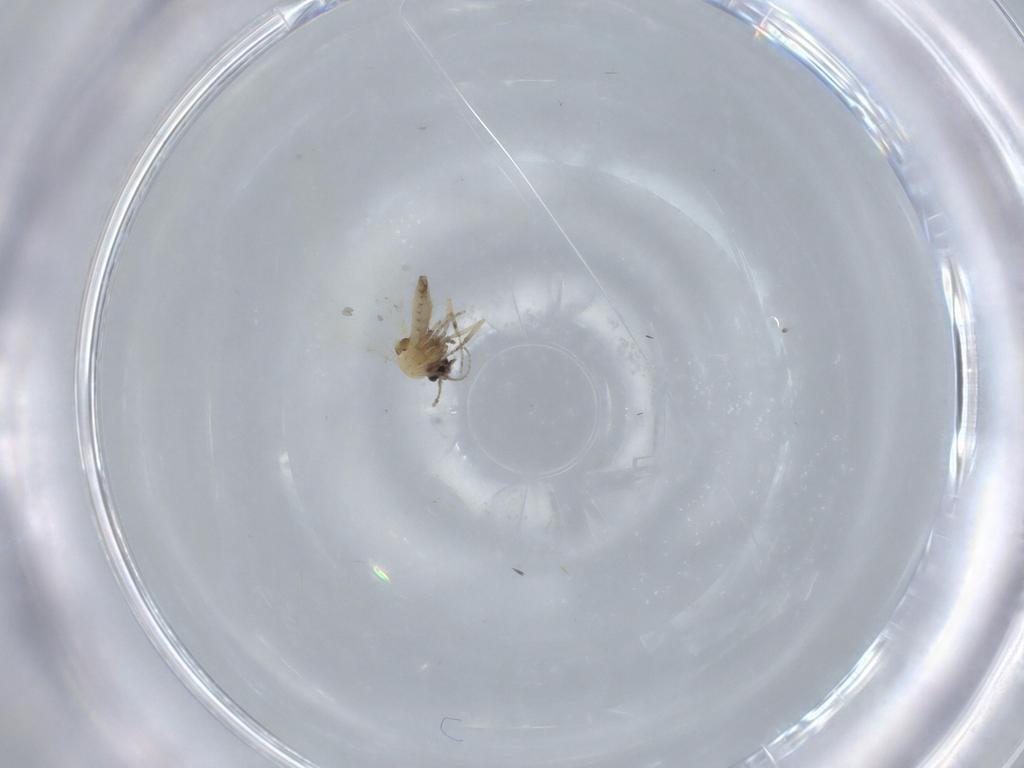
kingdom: Animalia
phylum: Arthropoda
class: Insecta
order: Diptera
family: Ceratopogonidae
